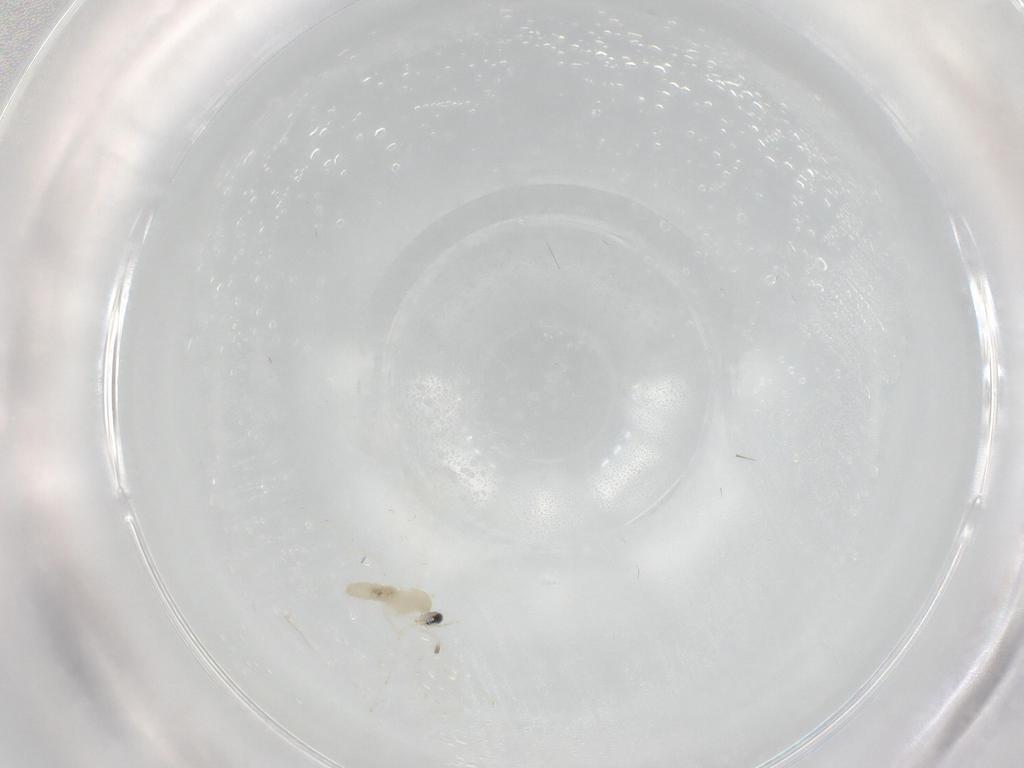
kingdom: Animalia
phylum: Arthropoda
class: Insecta
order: Diptera
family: Cecidomyiidae
